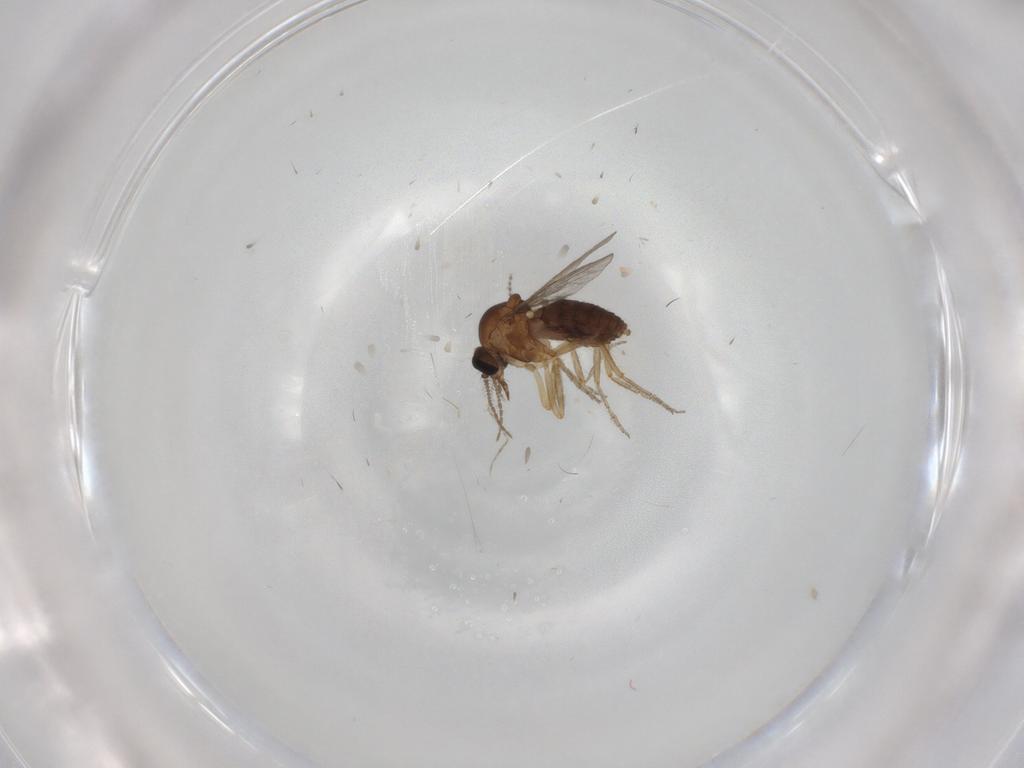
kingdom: Animalia
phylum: Arthropoda
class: Insecta
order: Diptera
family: Ceratopogonidae
